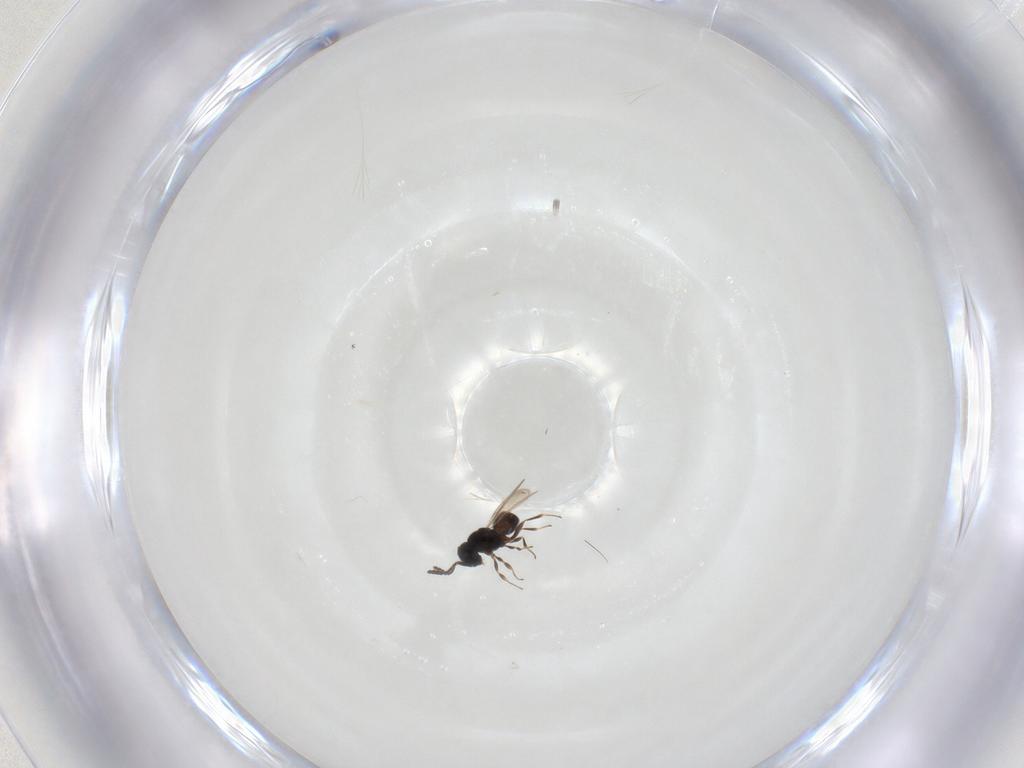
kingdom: Animalia
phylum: Arthropoda
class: Insecta
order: Hymenoptera
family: Scelionidae
